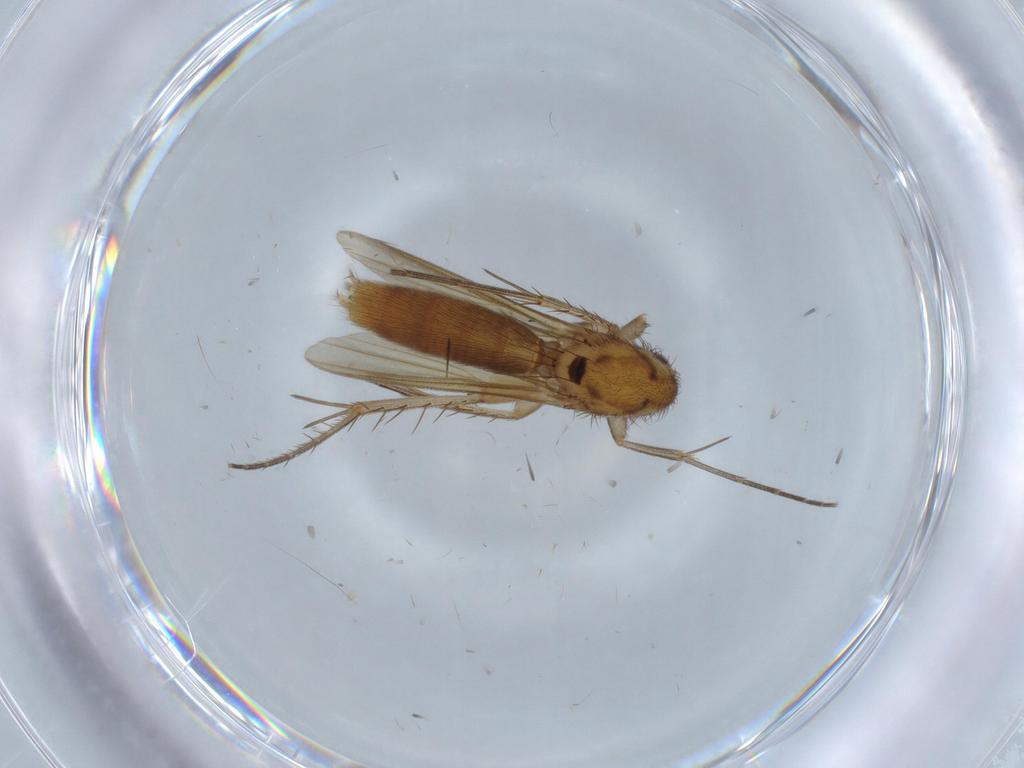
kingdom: Animalia
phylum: Arthropoda
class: Insecta
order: Diptera
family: Mycetophilidae
